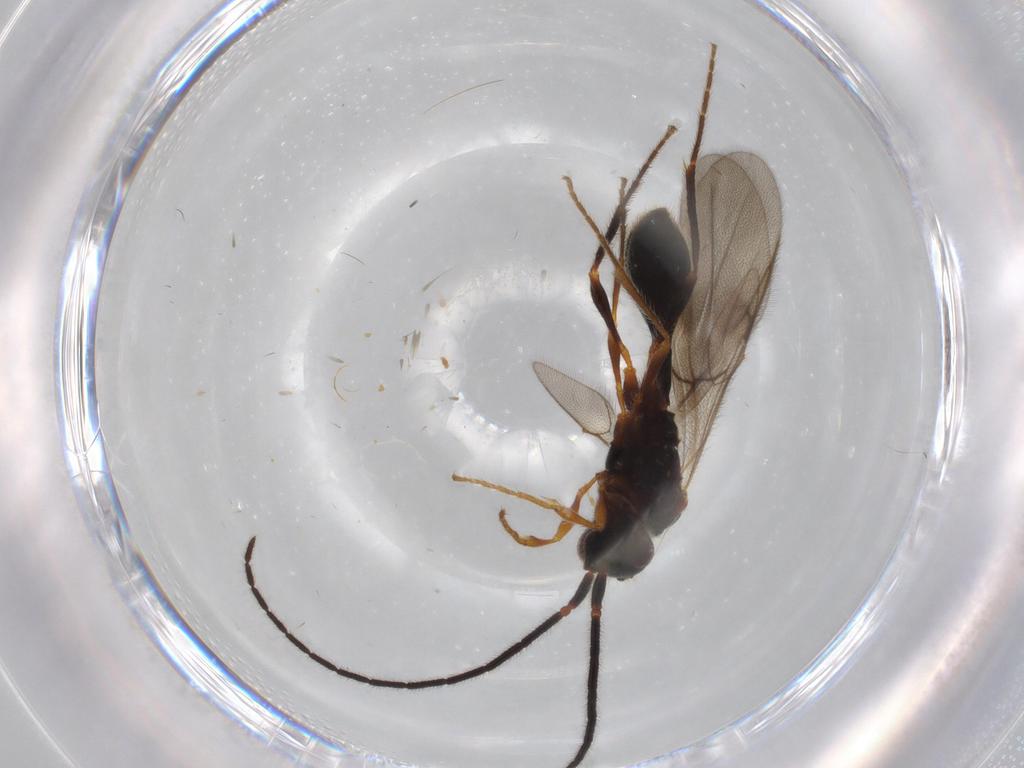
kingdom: Animalia
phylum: Arthropoda
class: Insecta
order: Hymenoptera
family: Diapriidae
